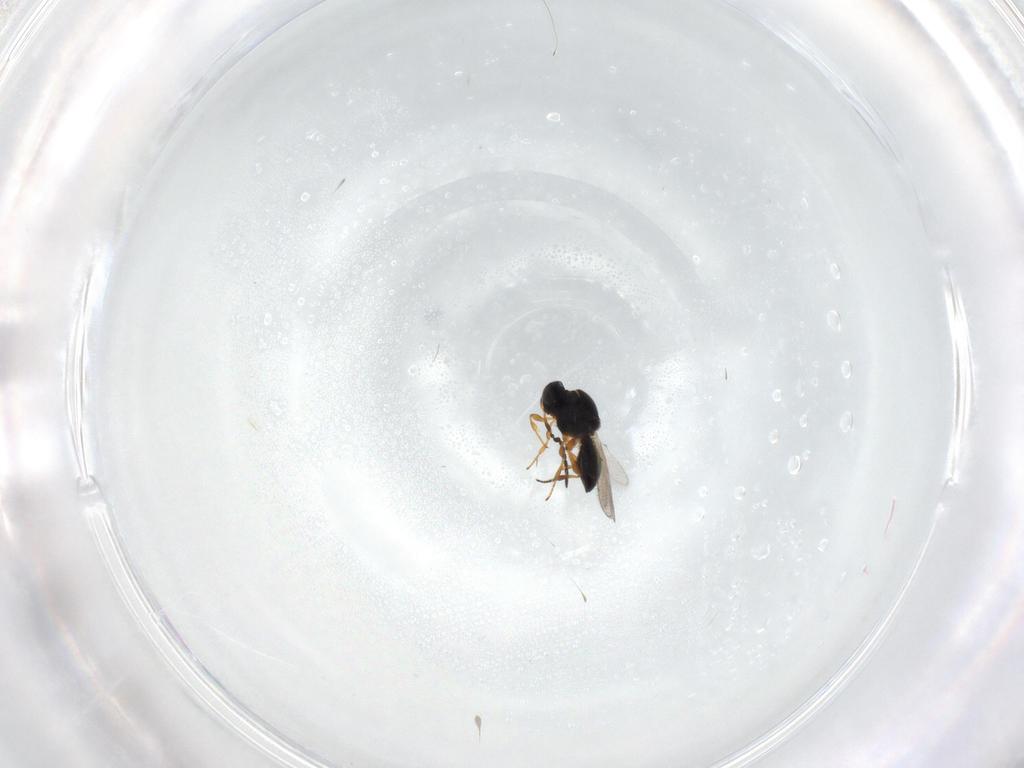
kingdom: Animalia
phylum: Arthropoda
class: Insecta
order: Hymenoptera
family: Platygastridae
